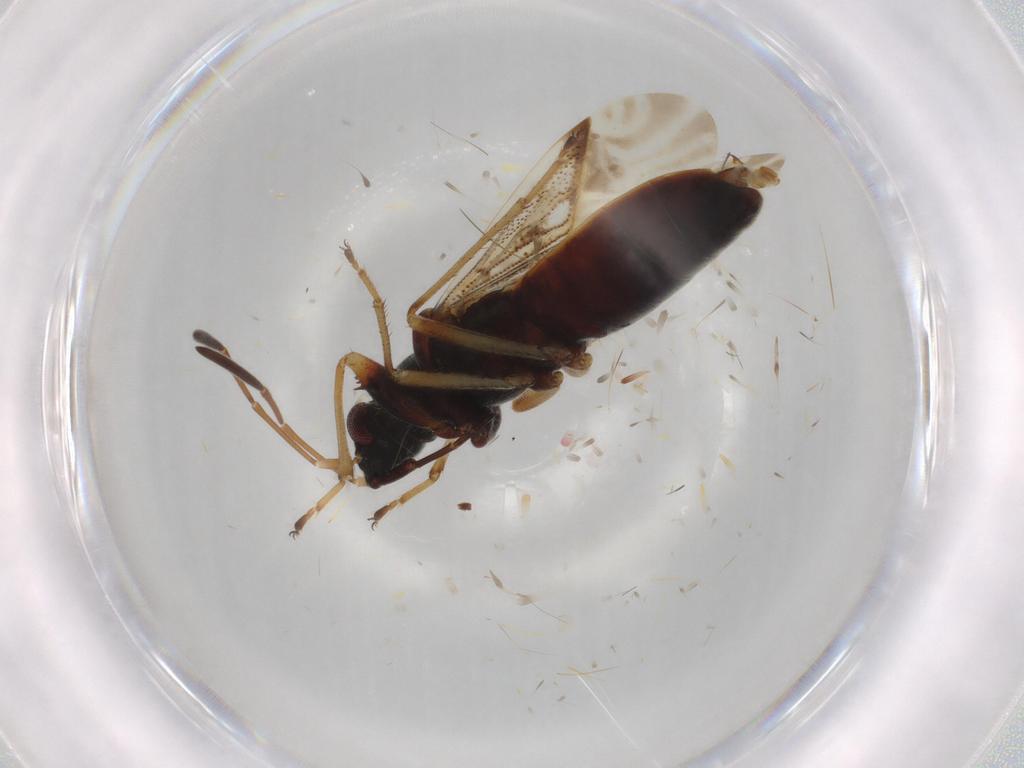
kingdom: Animalia
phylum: Arthropoda
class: Insecta
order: Hemiptera
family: Rhyparochromidae
